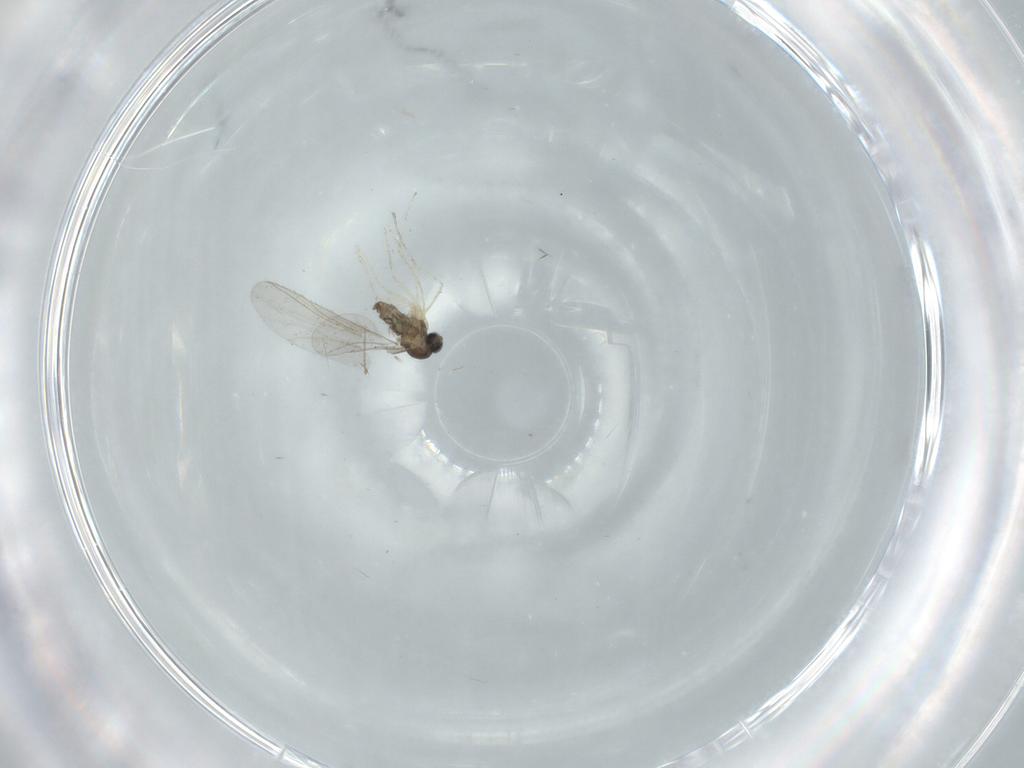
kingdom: Animalia
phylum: Arthropoda
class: Insecta
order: Diptera
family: Cecidomyiidae
